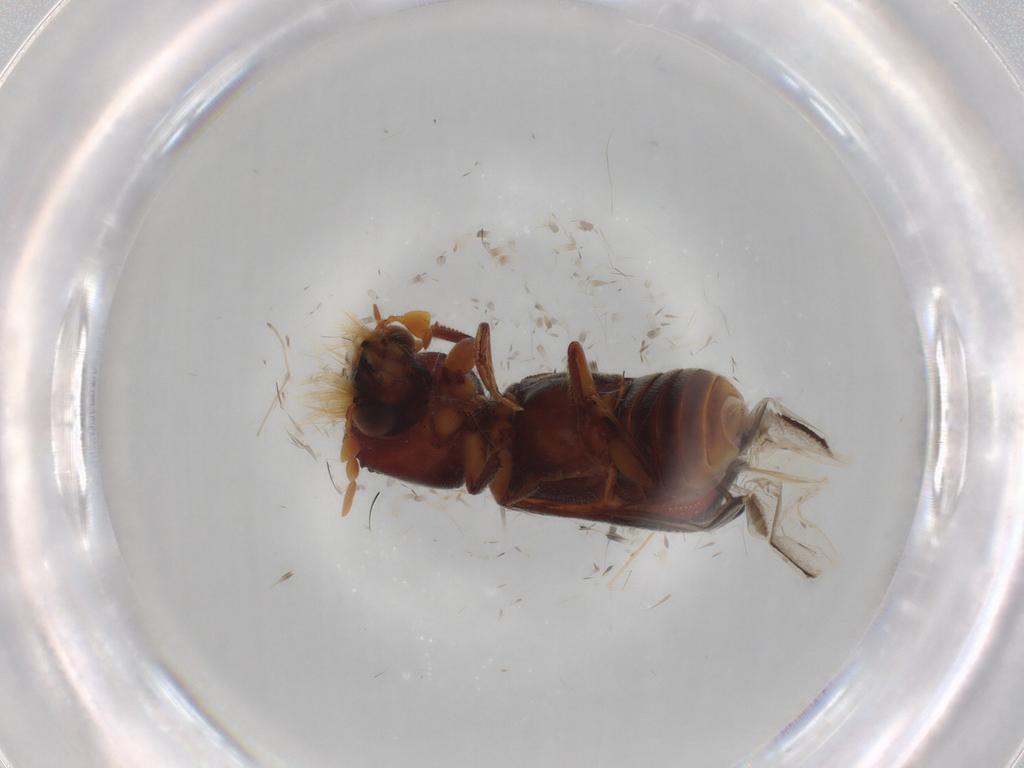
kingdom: Animalia
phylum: Arthropoda
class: Insecta
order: Coleoptera
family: Bostrichidae
